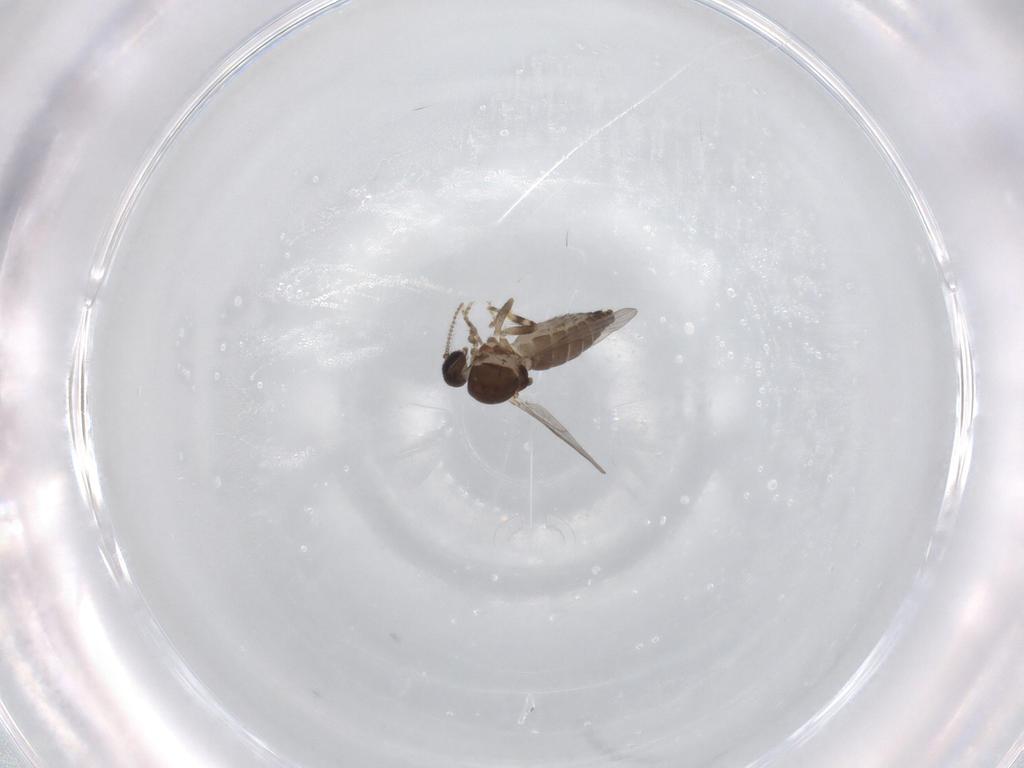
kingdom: Animalia
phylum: Arthropoda
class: Insecta
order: Diptera
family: Ceratopogonidae
